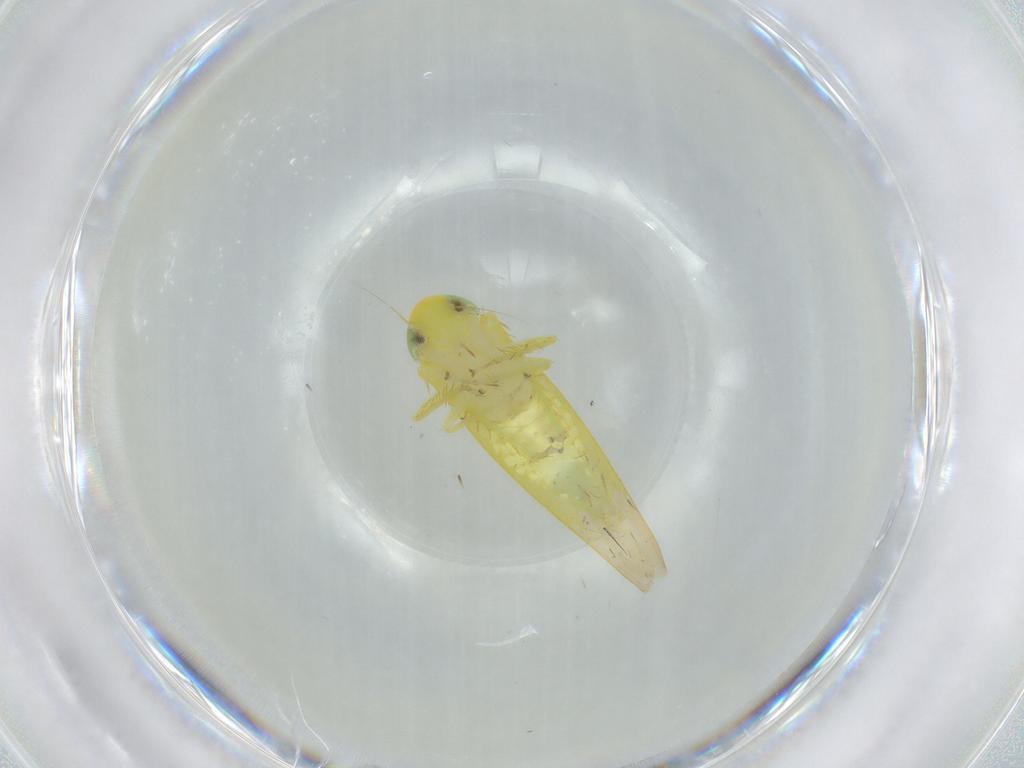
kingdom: Animalia
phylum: Arthropoda
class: Insecta
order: Hemiptera
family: Cicadellidae
